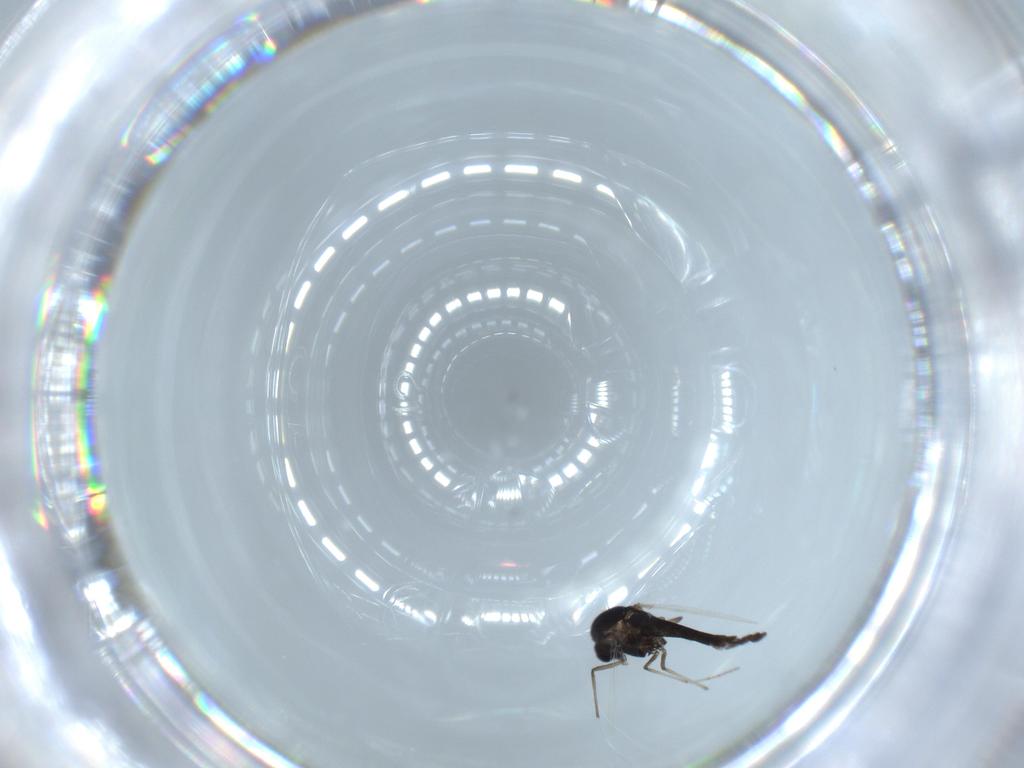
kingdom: Animalia
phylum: Arthropoda
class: Insecta
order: Diptera
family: Chironomidae
